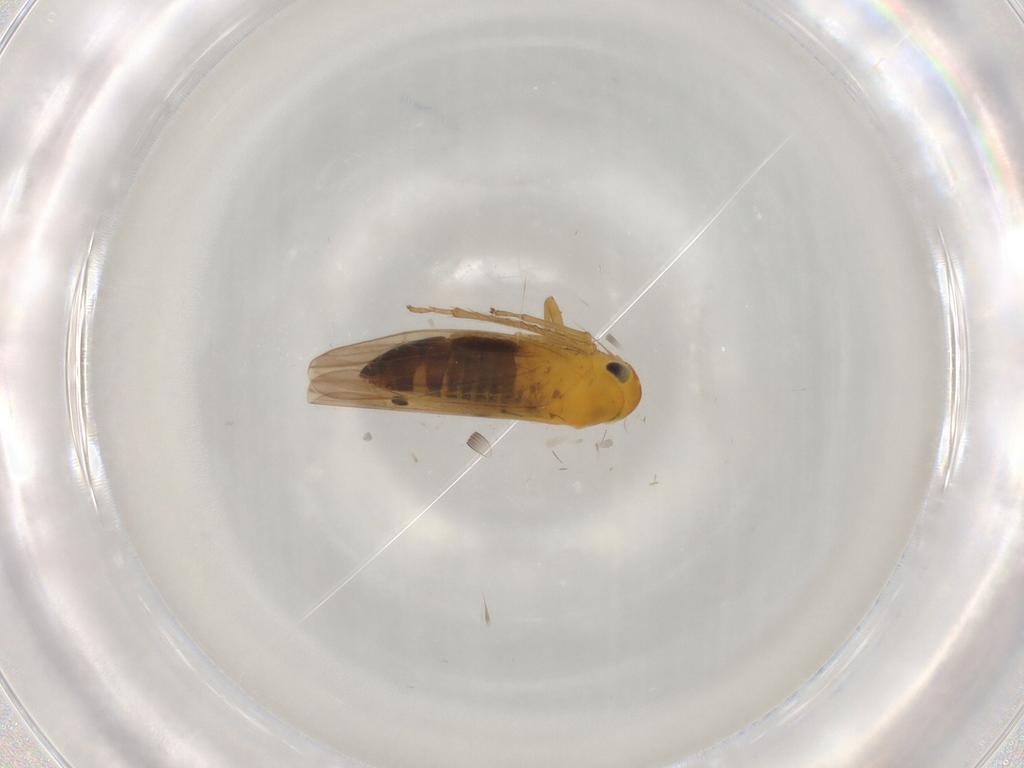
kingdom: Animalia
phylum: Arthropoda
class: Insecta
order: Hemiptera
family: Cicadellidae
